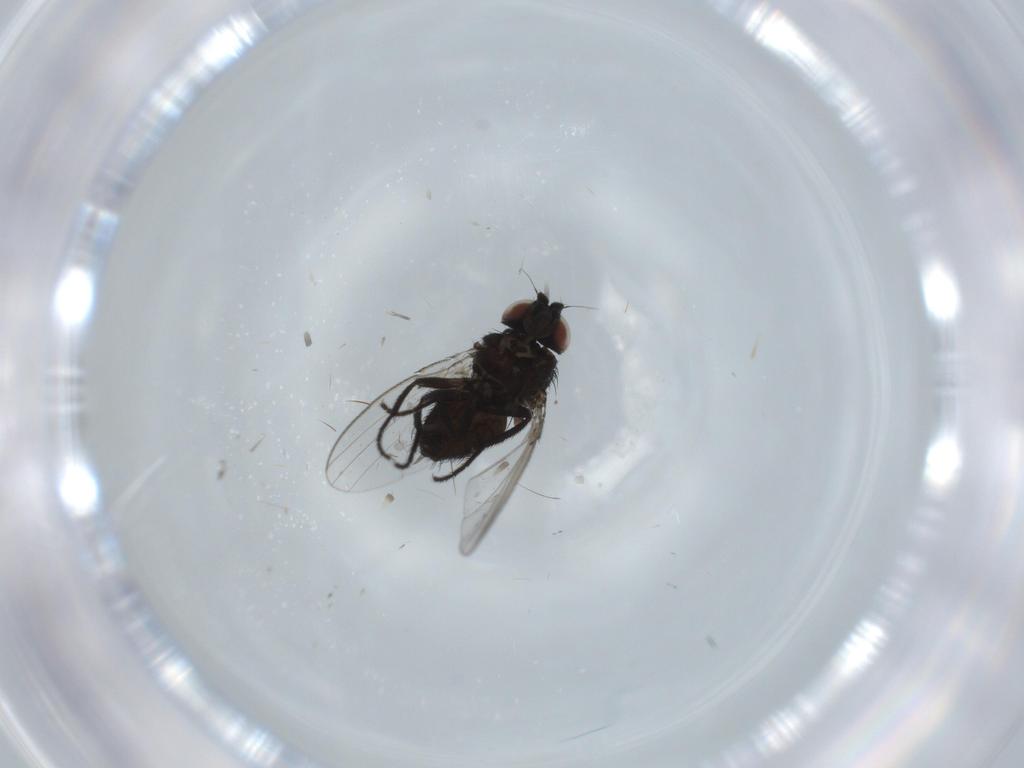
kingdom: Animalia
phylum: Arthropoda
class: Insecta
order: Diptera
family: Milichiidae
